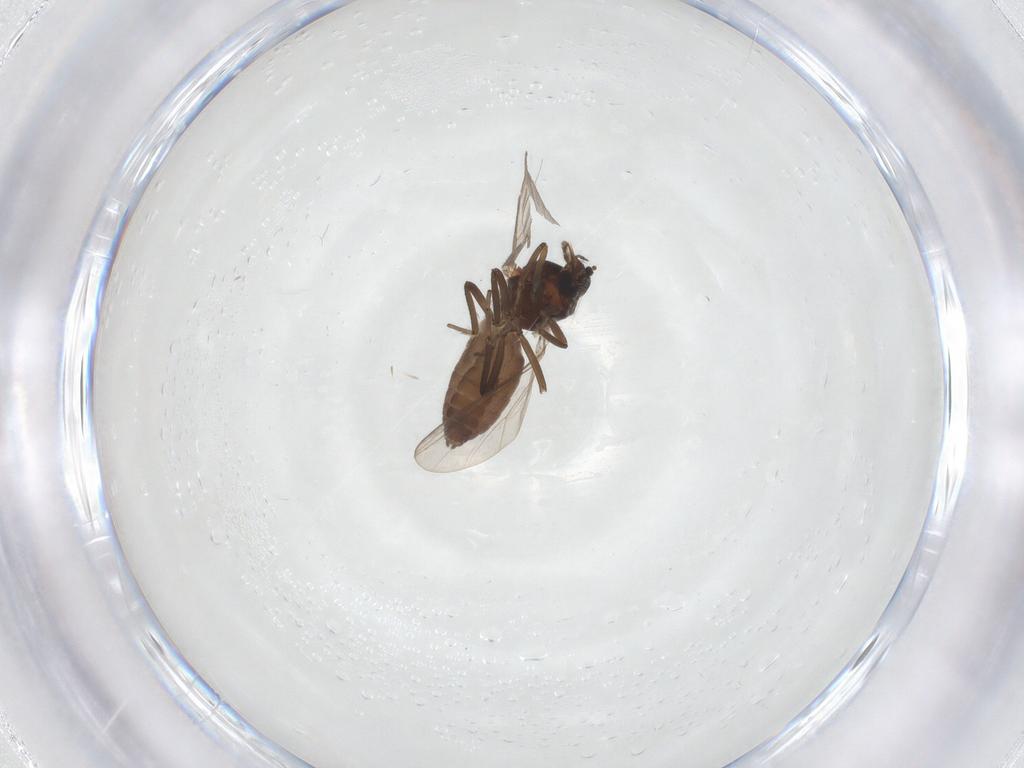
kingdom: Animalia
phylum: Arthropoda
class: Insecta
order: Diptera
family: Ceratopogonidae
